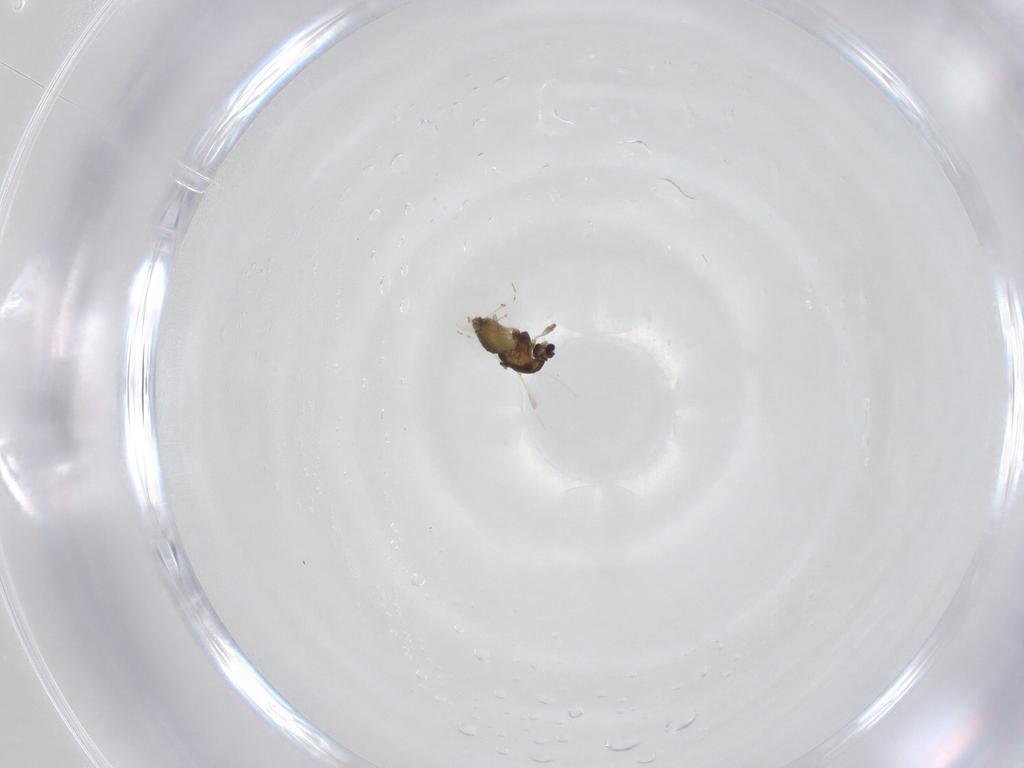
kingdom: Animalia
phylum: Arthropoda
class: Insecta
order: Diptera
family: Chironomidae
